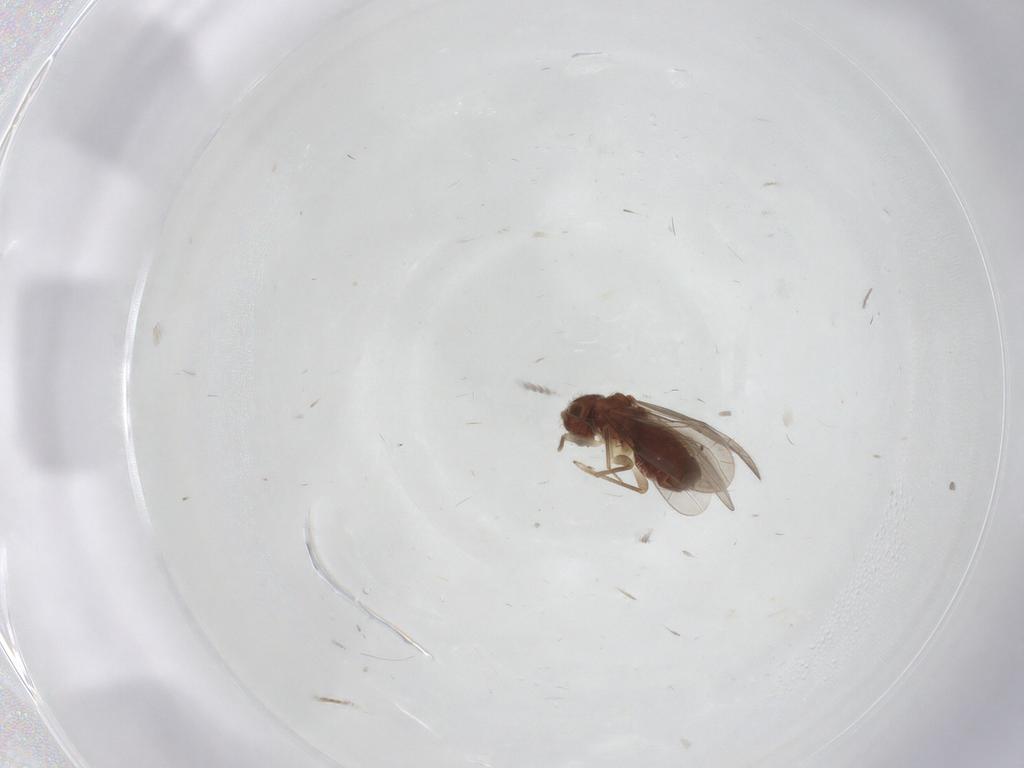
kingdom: Animalia
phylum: Arthropoda
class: Insecta
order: Psocodea
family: Epipsocidae
